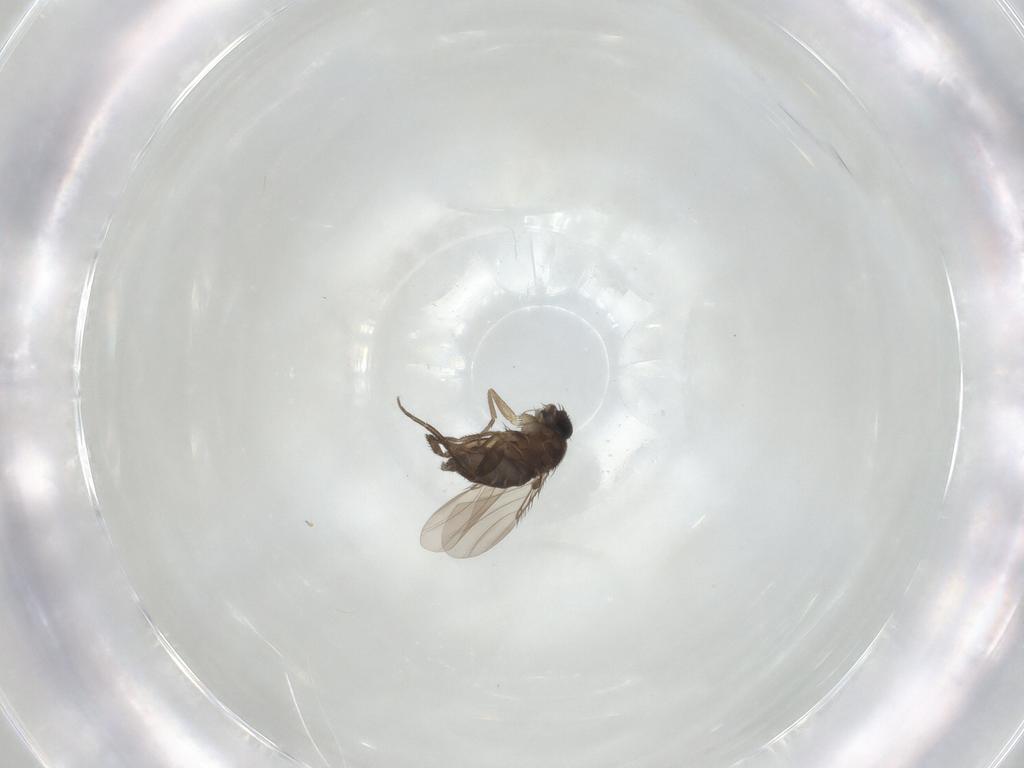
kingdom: Animalia
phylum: Arthropoda
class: Insecta
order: Diptera
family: Phoridae
